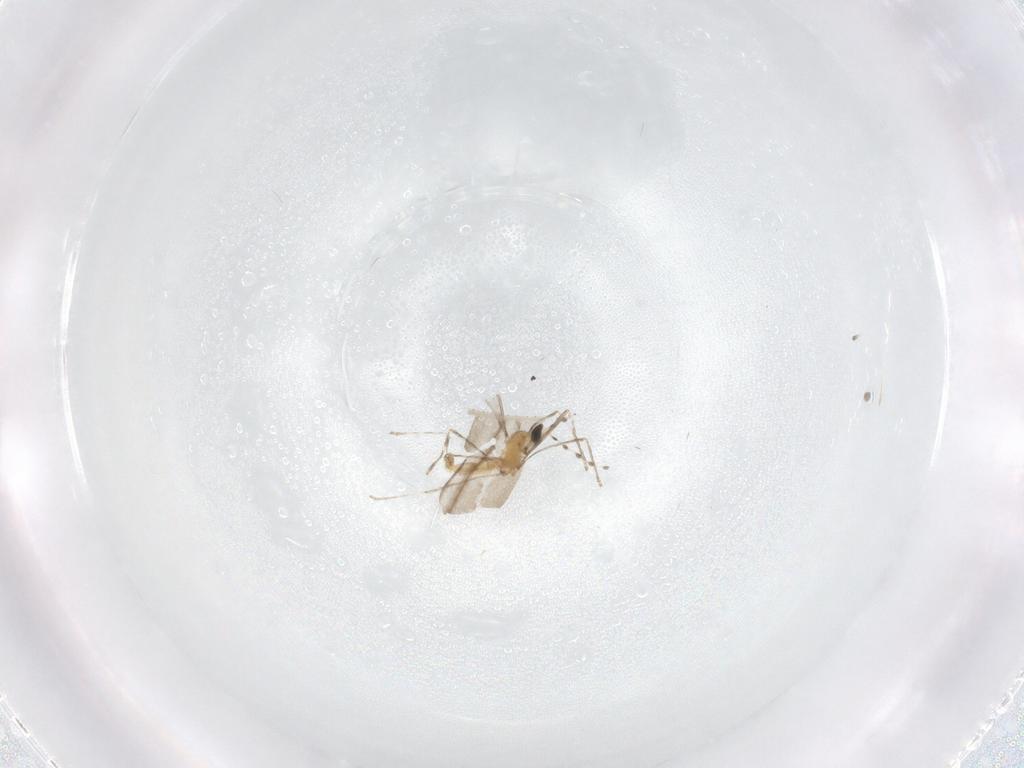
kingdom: Animalia
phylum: Arthropoda
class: Insecta
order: Diptera
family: Cecidomyiidae
